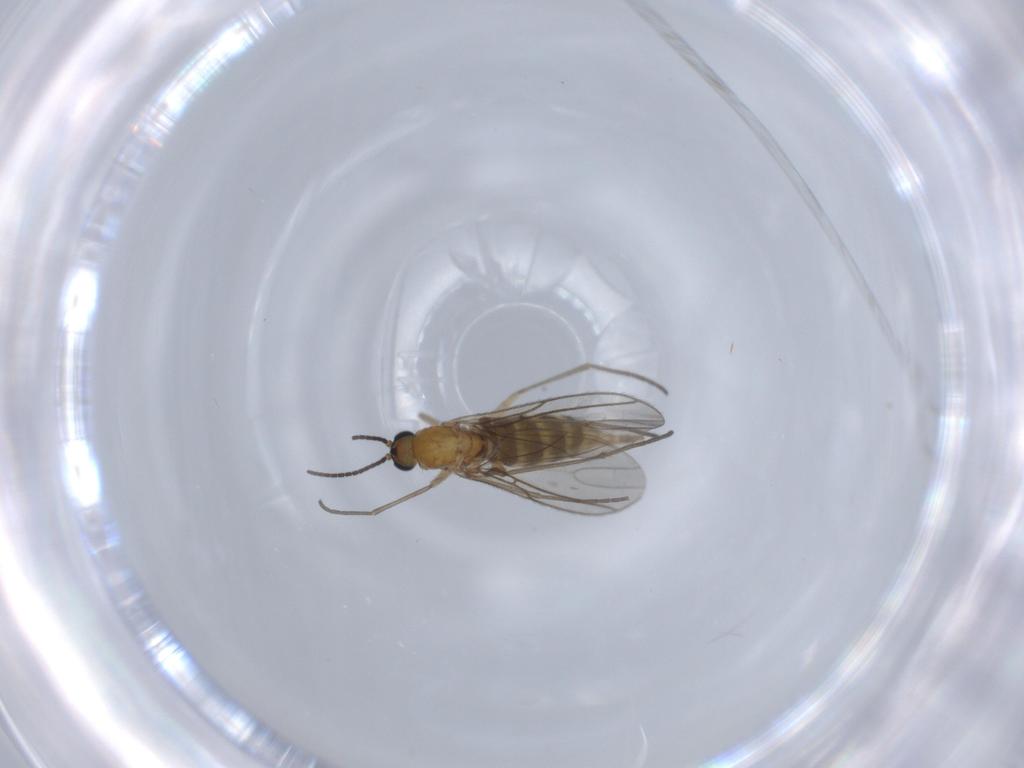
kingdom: Animalia
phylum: Arthropoda
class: Insecta
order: Diptera
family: Sciaridae
